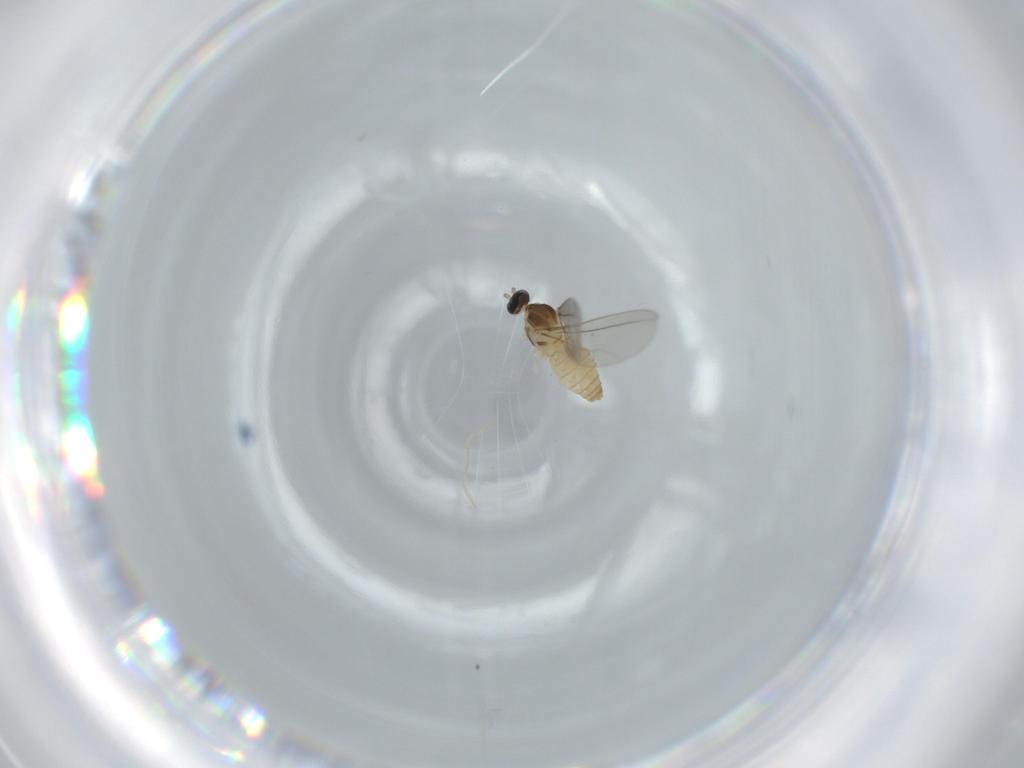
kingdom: Animalia
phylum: Arthropoda
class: Insecta
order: Diptera
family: Cecidomyiidae
